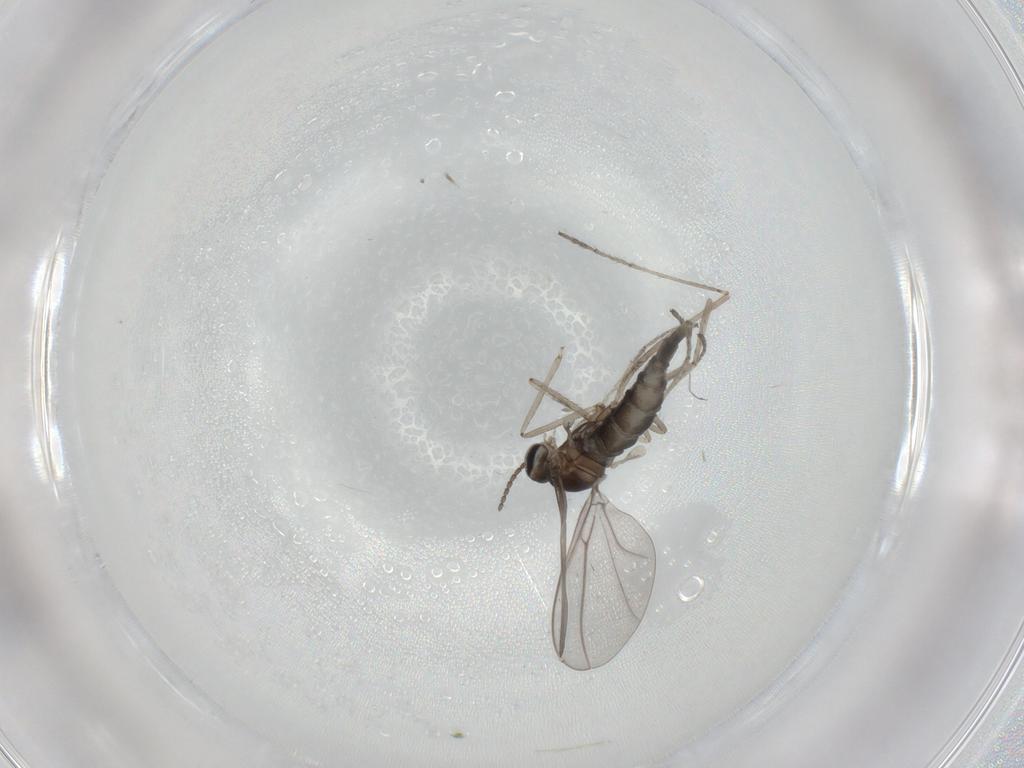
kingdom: Animalia
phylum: Arthropoda
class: Insecta
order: Diptera
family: Cecidomyiidae
